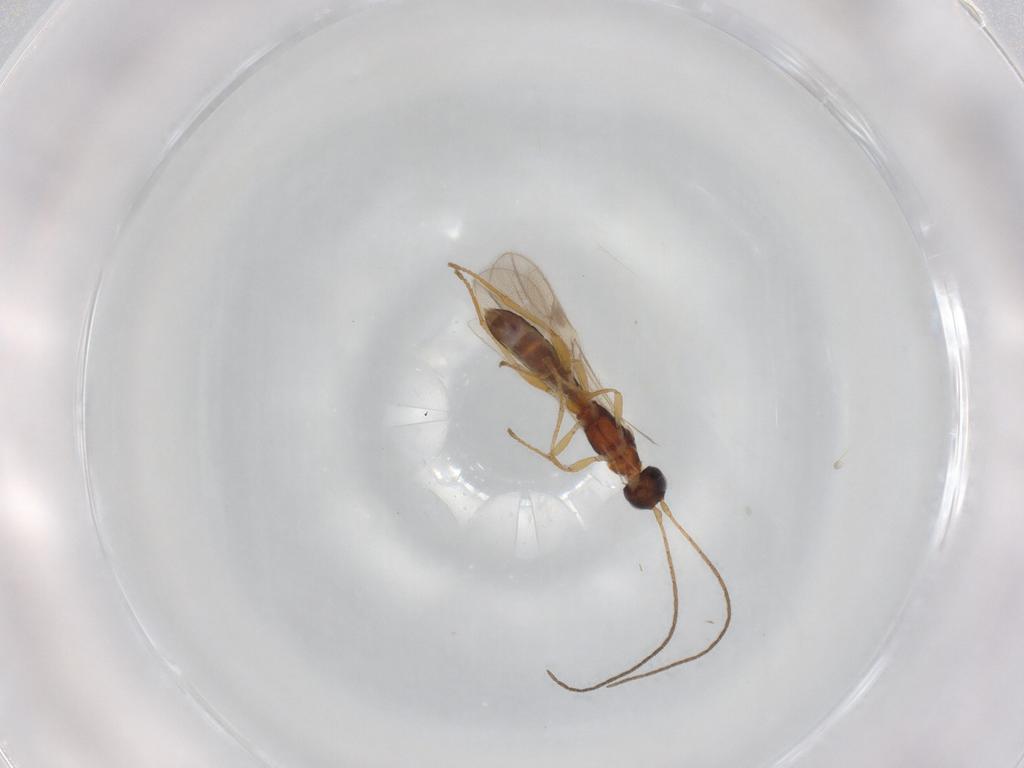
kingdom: Animalia
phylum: Arthropoda
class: Insecta
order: Hymenoptera
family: Braconidae
